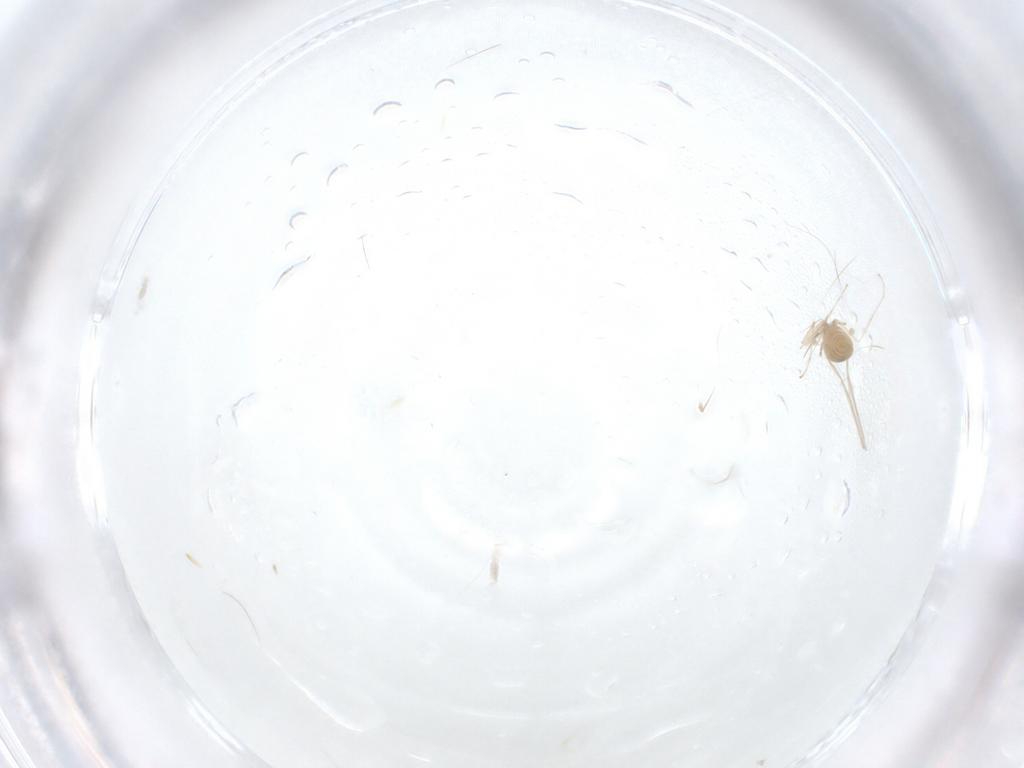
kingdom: Animalia
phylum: Arthropoda
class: Insecta
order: Diptera
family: Cecidomyiidae
